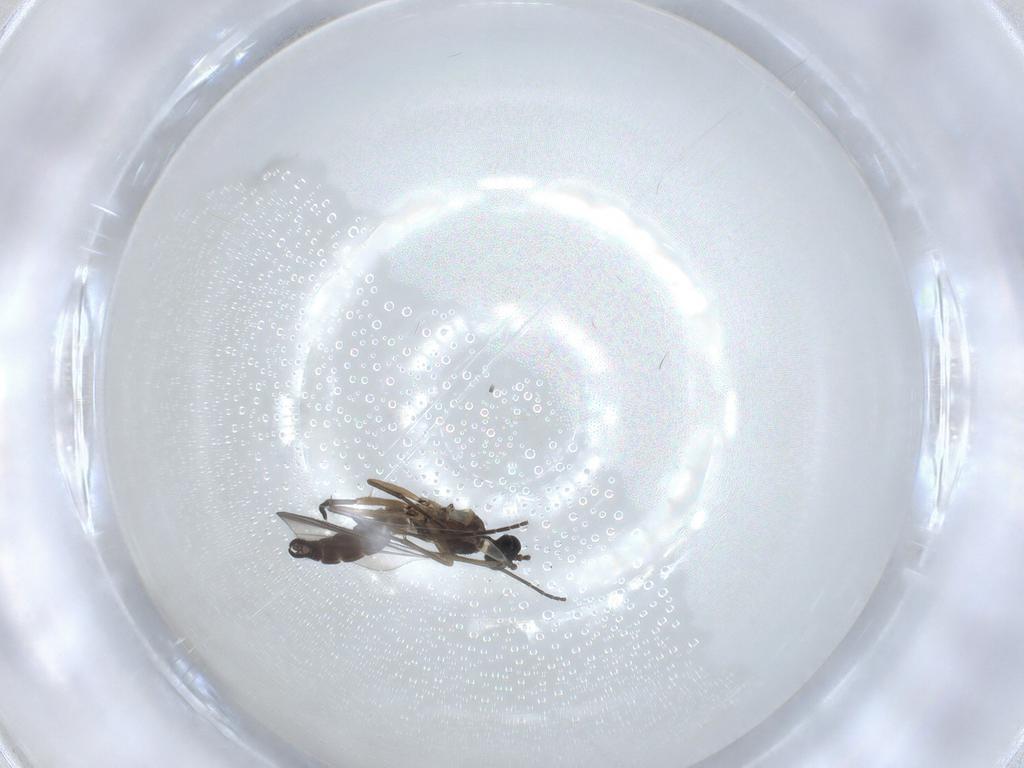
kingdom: Animalia
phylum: Arthropoda
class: Insecta
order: Diptera
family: Sciaridae
